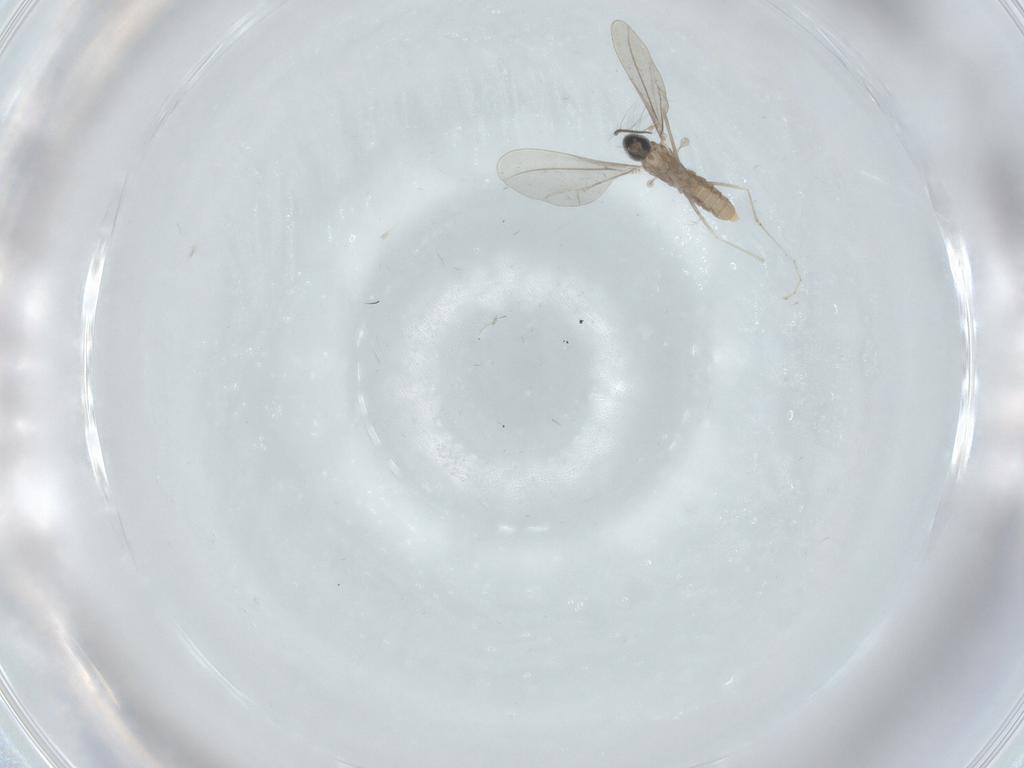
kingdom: Animalia
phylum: Arthropoda
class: Insecta
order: Diptera
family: Cecidomyiidae
